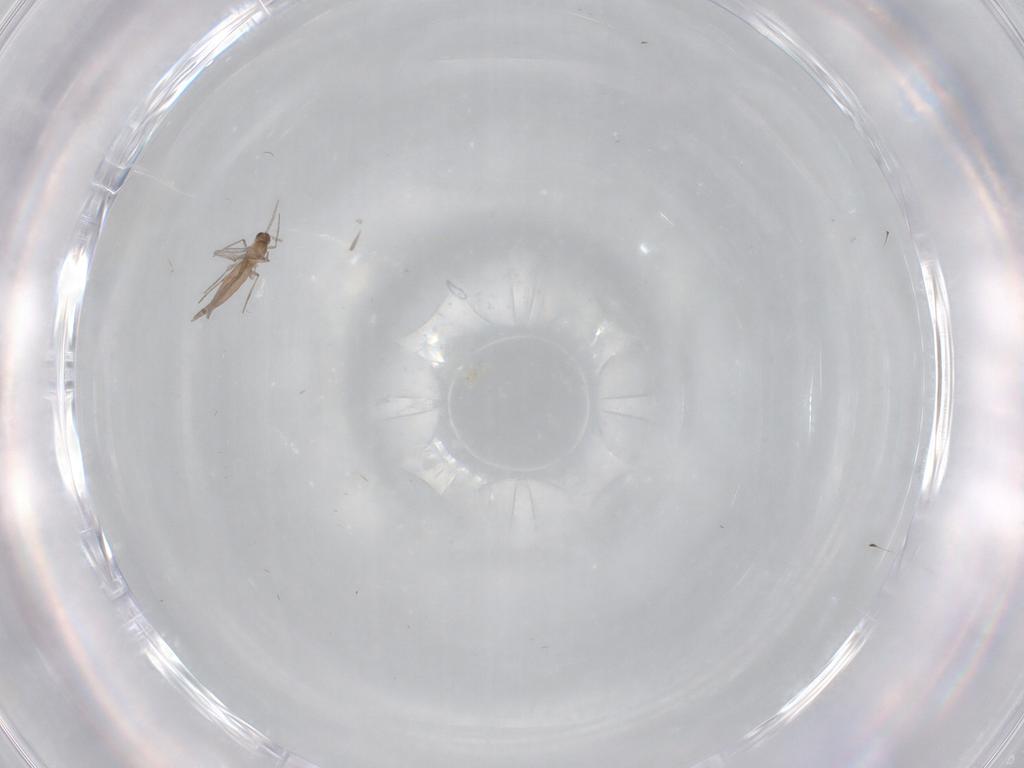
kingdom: Animalia
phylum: Arthropoda
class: Insecta
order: Diptera
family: Cecidomyiidae
